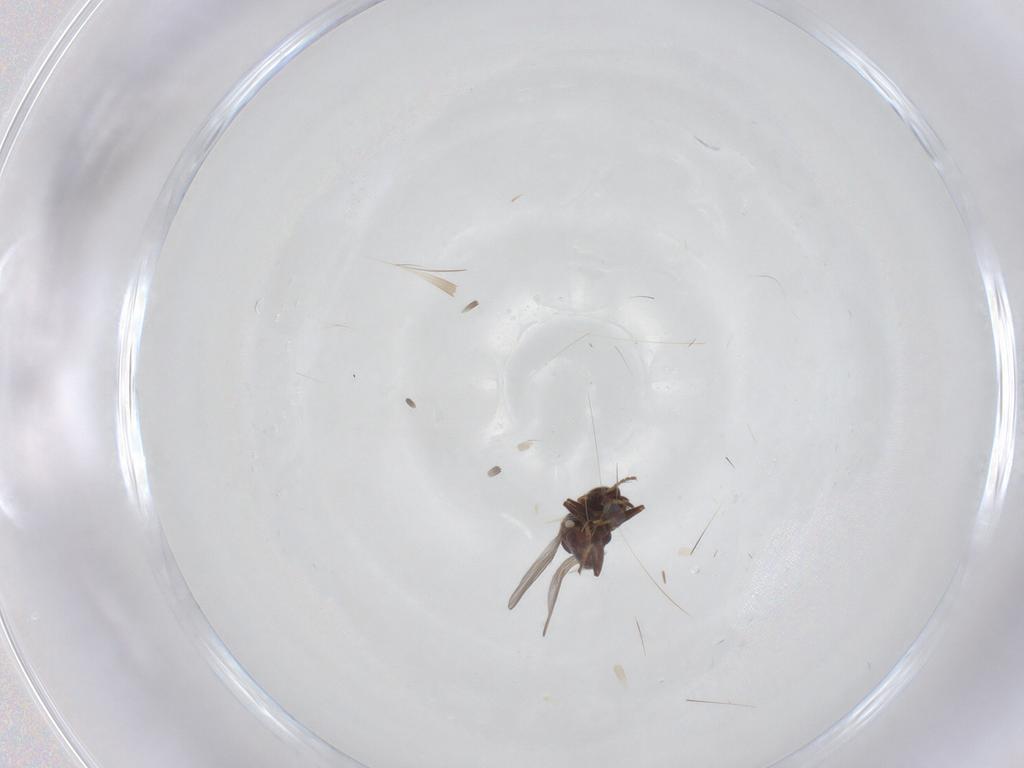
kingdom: Animalia
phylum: Arthropoda
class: Insecta
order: Diptera
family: Chloropidae
